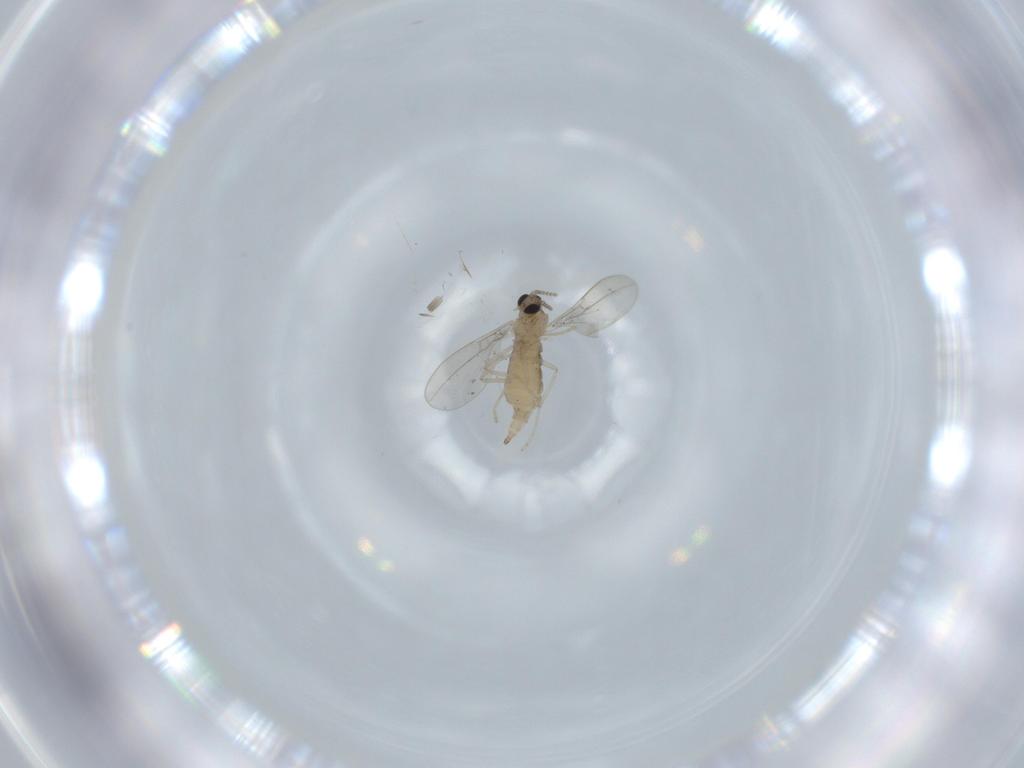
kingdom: Animalia
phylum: Arthropoda
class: Insecta
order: Diptera
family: Cecidomyiidae
